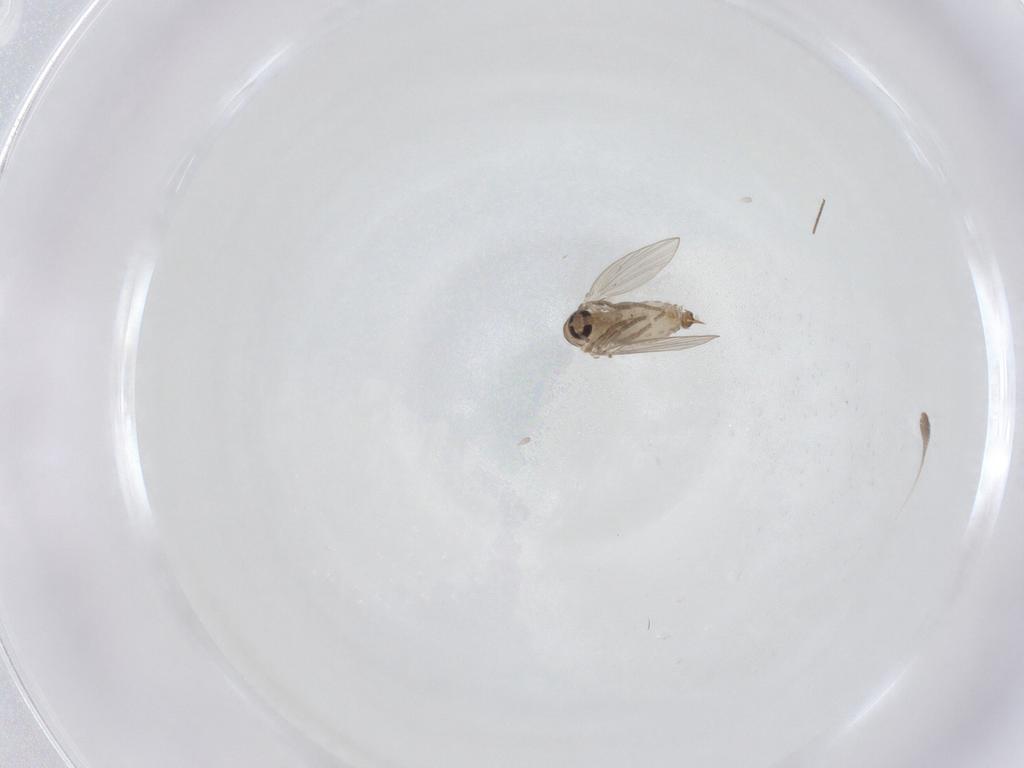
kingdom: Animalia
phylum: Arthropoda
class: Insecta
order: Diptera
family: Psychodidae
